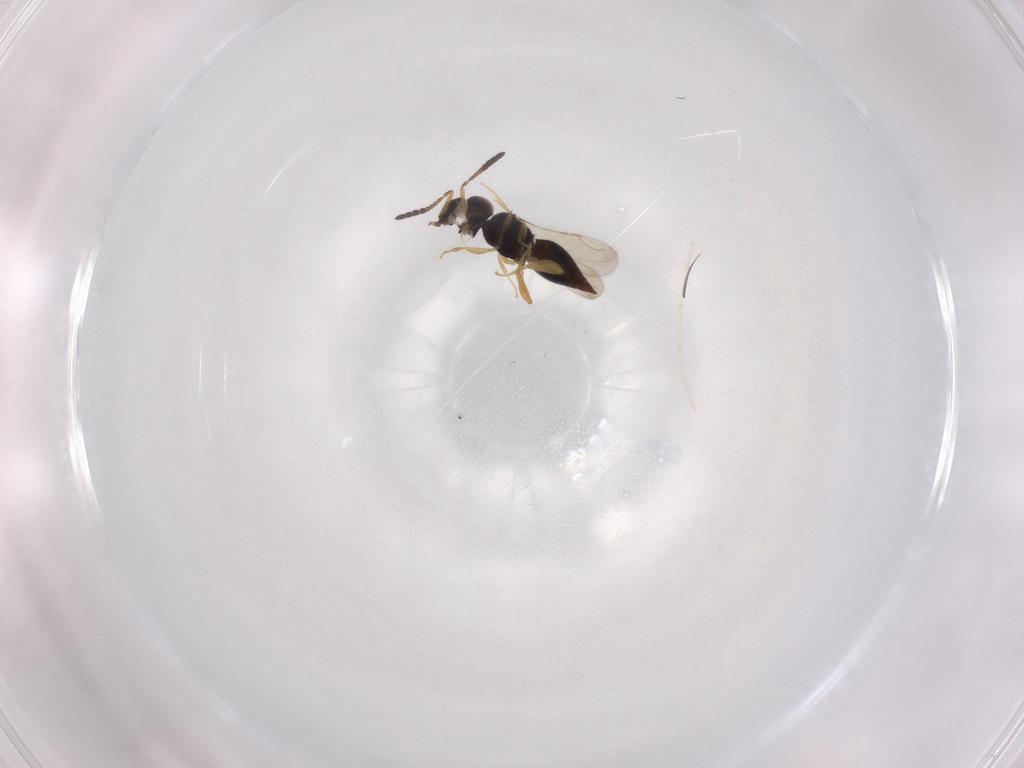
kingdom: Animalia
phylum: Arthropoda
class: Insecta
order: Hymenoptera
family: Ceraphronidae
